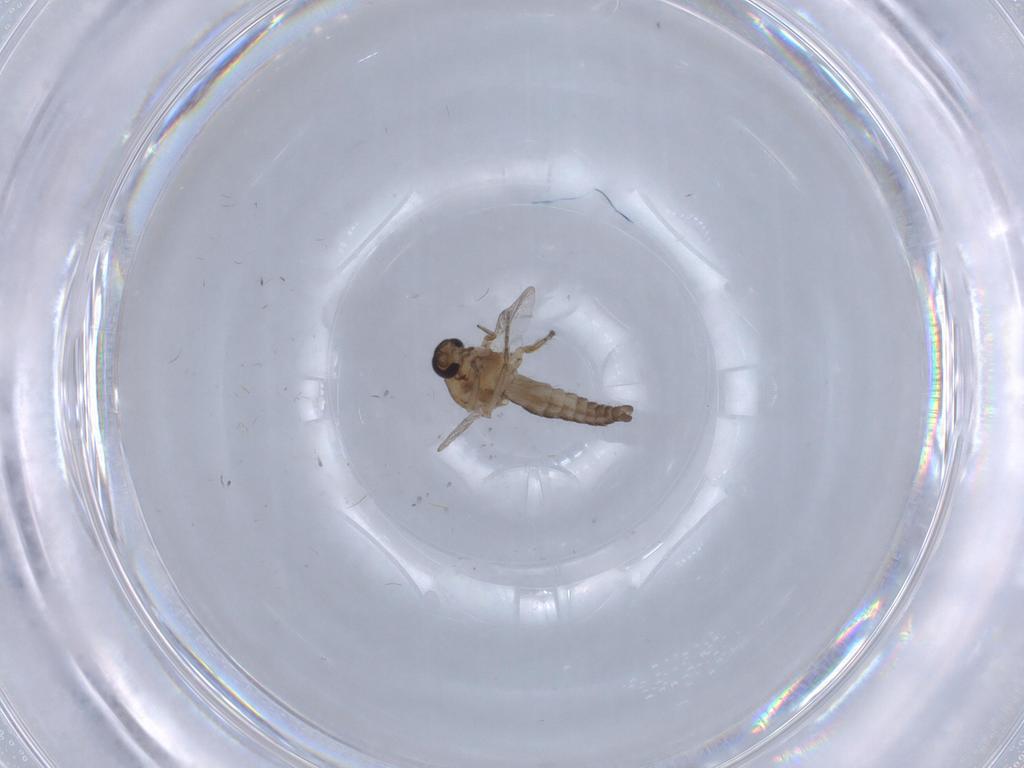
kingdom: Animalia
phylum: Arthropoda
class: Insecta
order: Diptera
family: Ceratopogonidae
